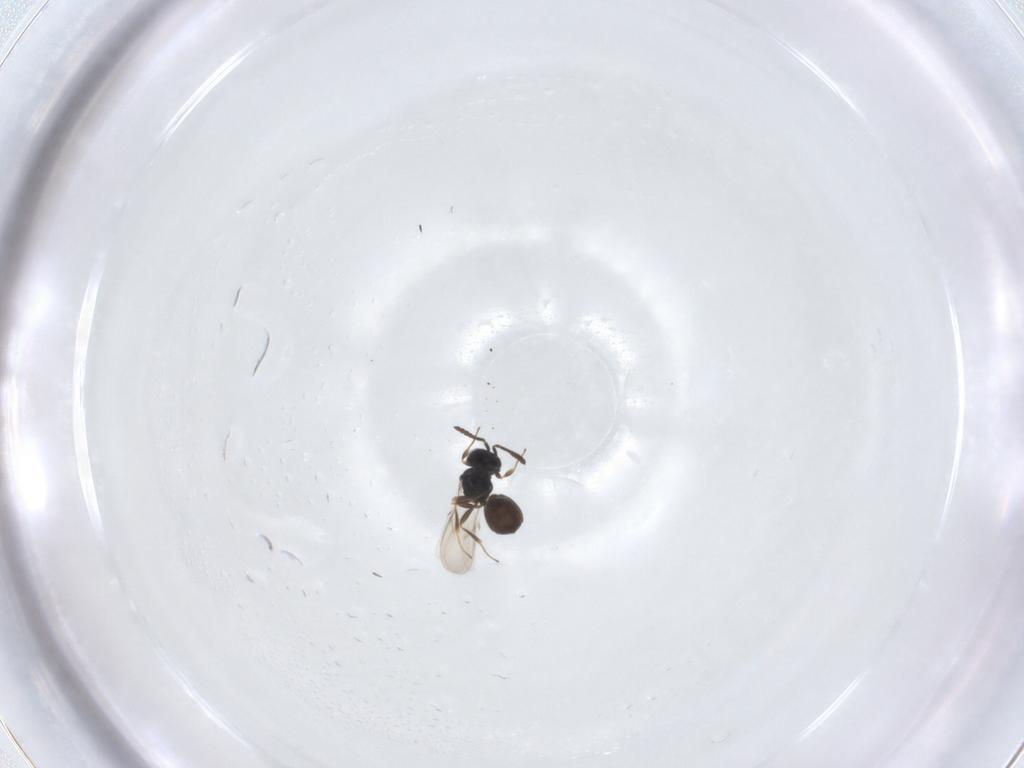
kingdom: Animalia
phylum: Arthropoda
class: Insecta
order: Hymenoptera
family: Scelionidae
